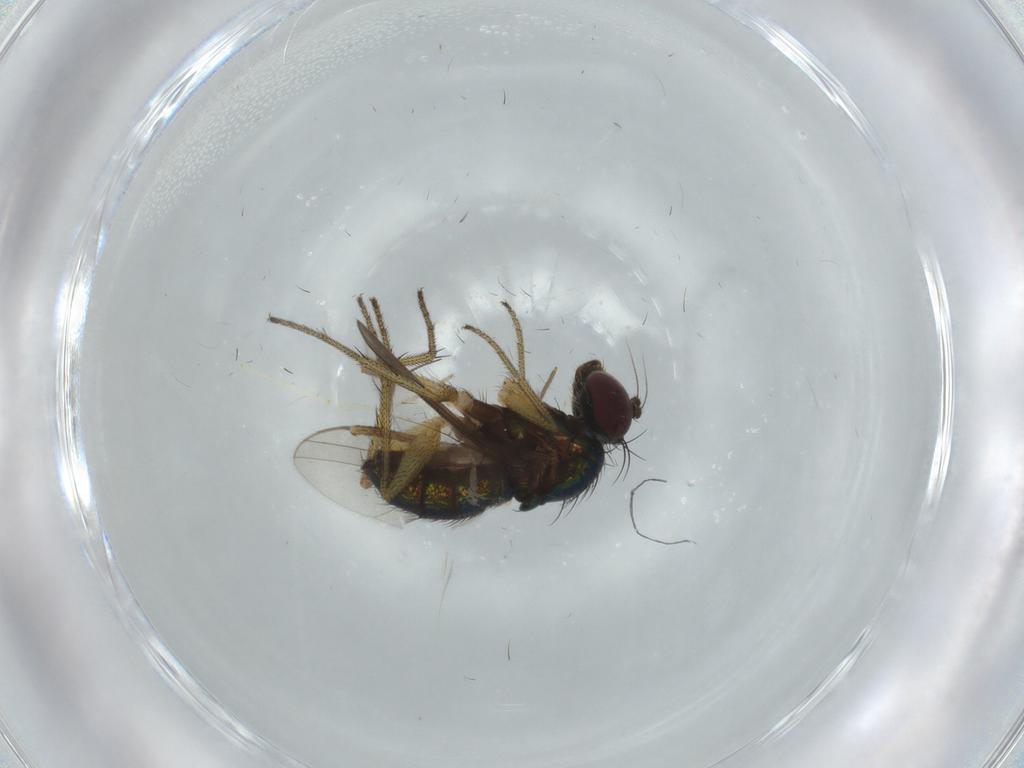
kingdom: Animalia
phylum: Arthropoda
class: Insecta
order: Diptera
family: Dolichopodidae
